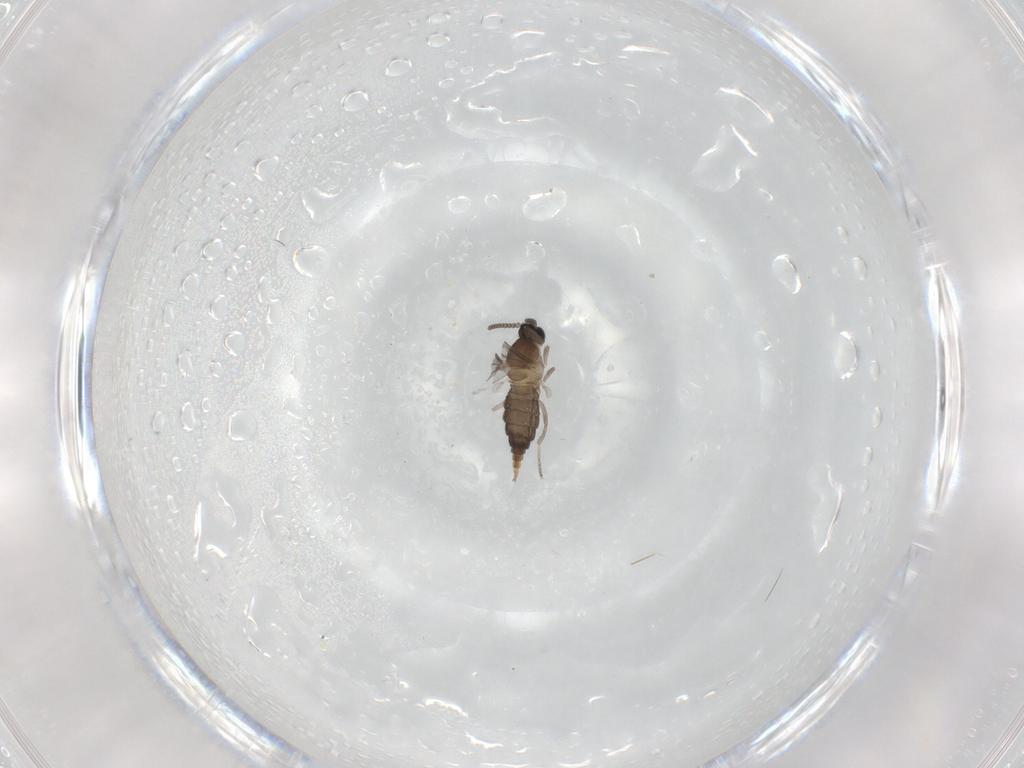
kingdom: Animalia
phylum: Arthropoda
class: Insecta
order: Diptera
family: Cecidomyiidae
